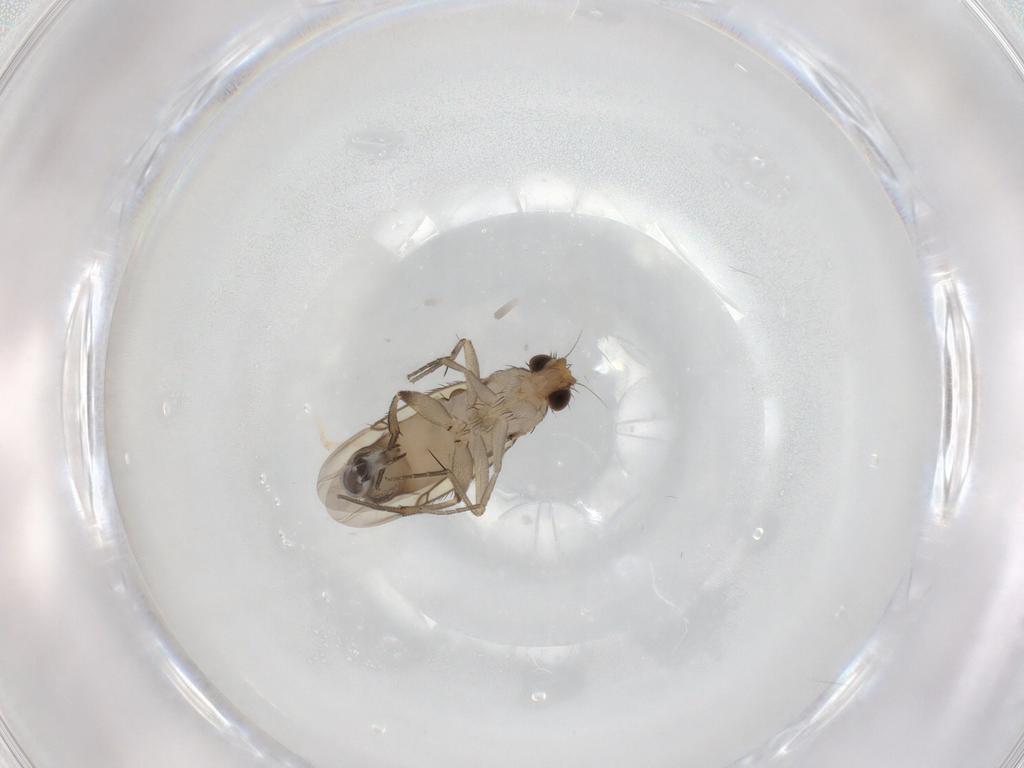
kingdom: Animalia
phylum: Arthropoda
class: Insecta
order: Diptera
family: Phoridae
